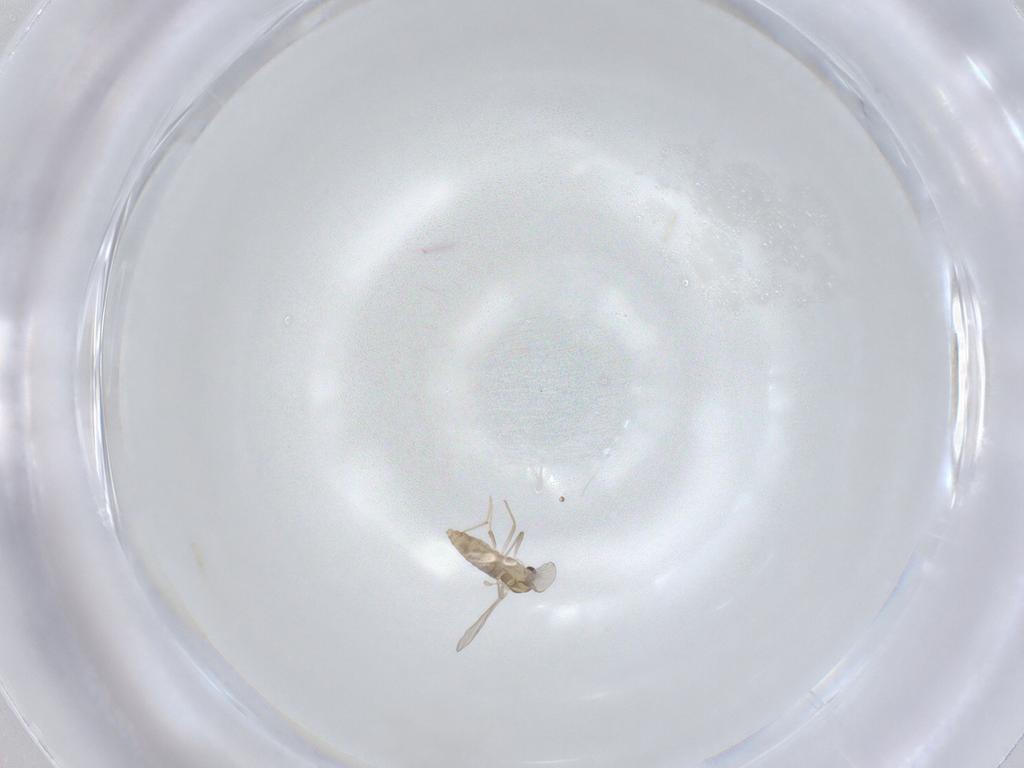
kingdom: Animalia
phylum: Arthropoda
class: Insecta
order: Diptera
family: Chironomidae
